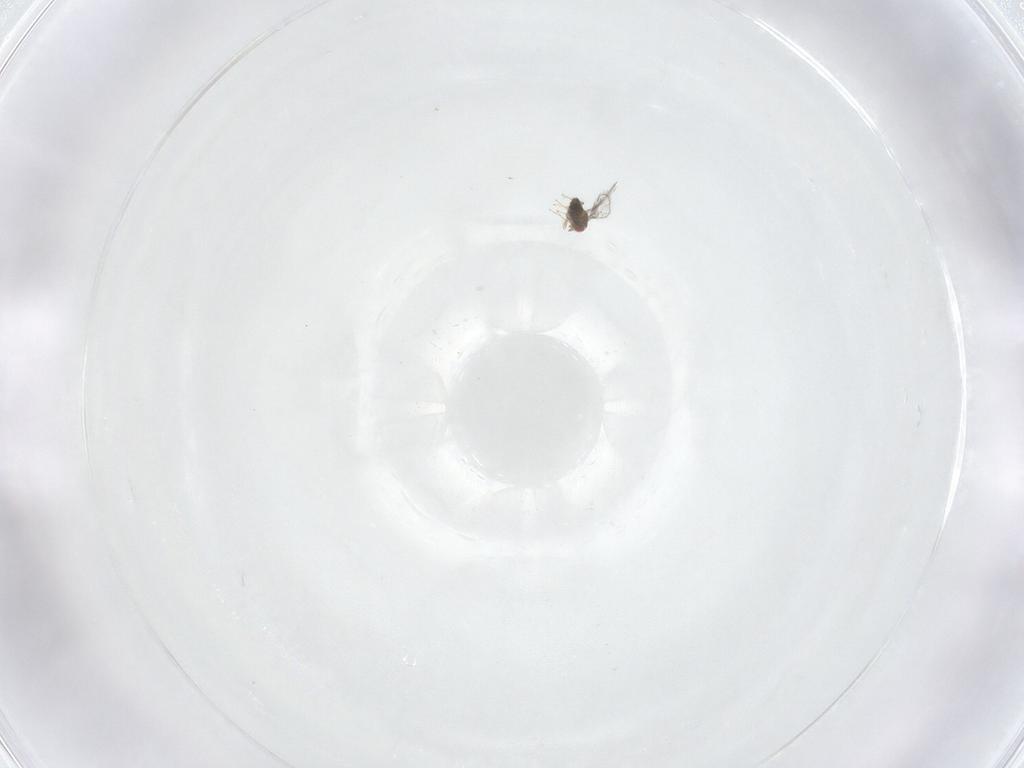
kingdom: Animalia
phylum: Arthropoda
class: Insecta
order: Hymenoptera
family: Trichogrammatidae
